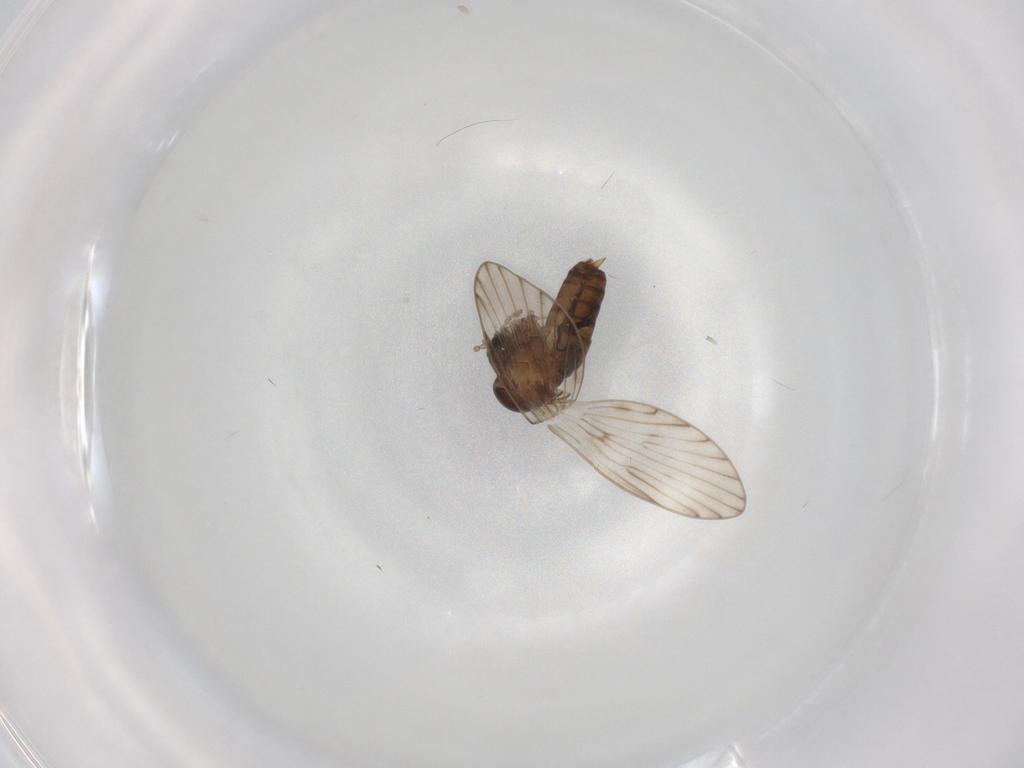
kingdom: Animalia
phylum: Arthropoda
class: Insecta
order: Diptera
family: Psychodidae
